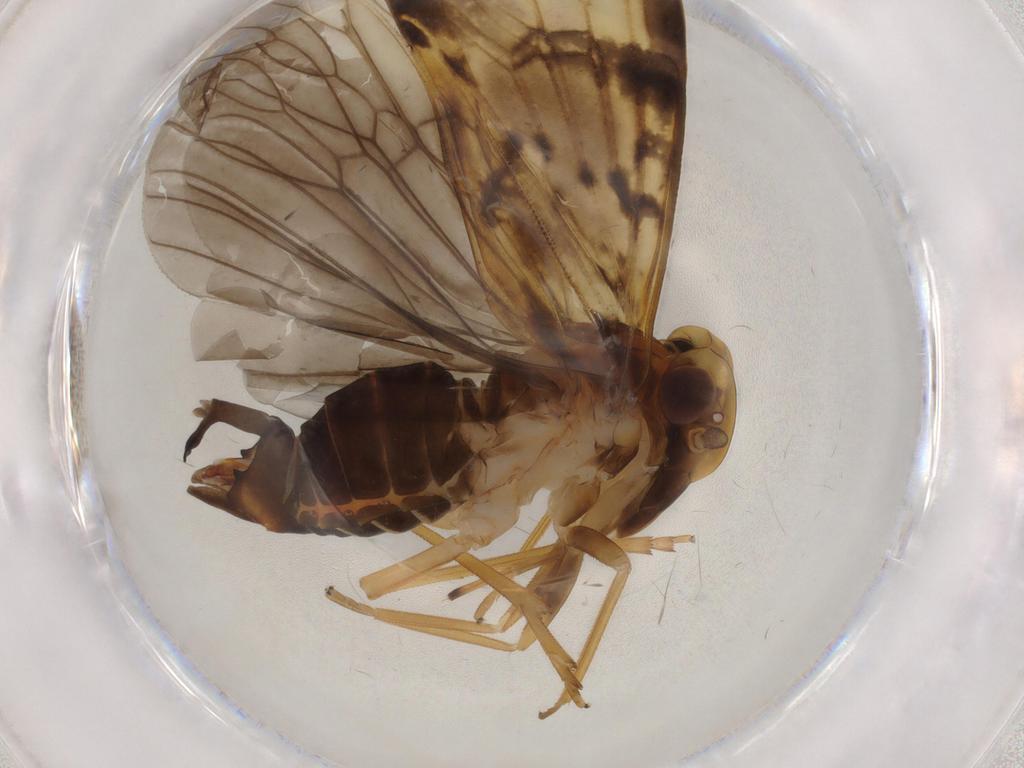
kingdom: Animalia
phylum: Arthropoda
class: Insecta
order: Hemiptera
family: Cixiidae
